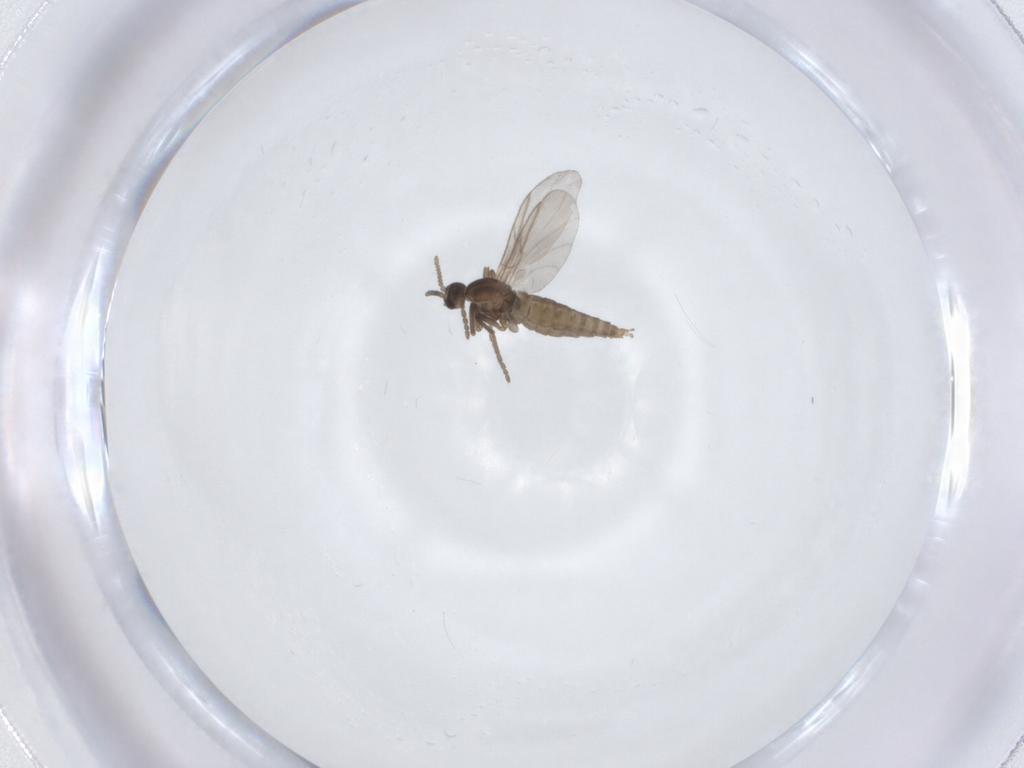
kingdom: Animalia
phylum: Arthropoda
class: Insecta
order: Diptera
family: Cecidomyiidae
